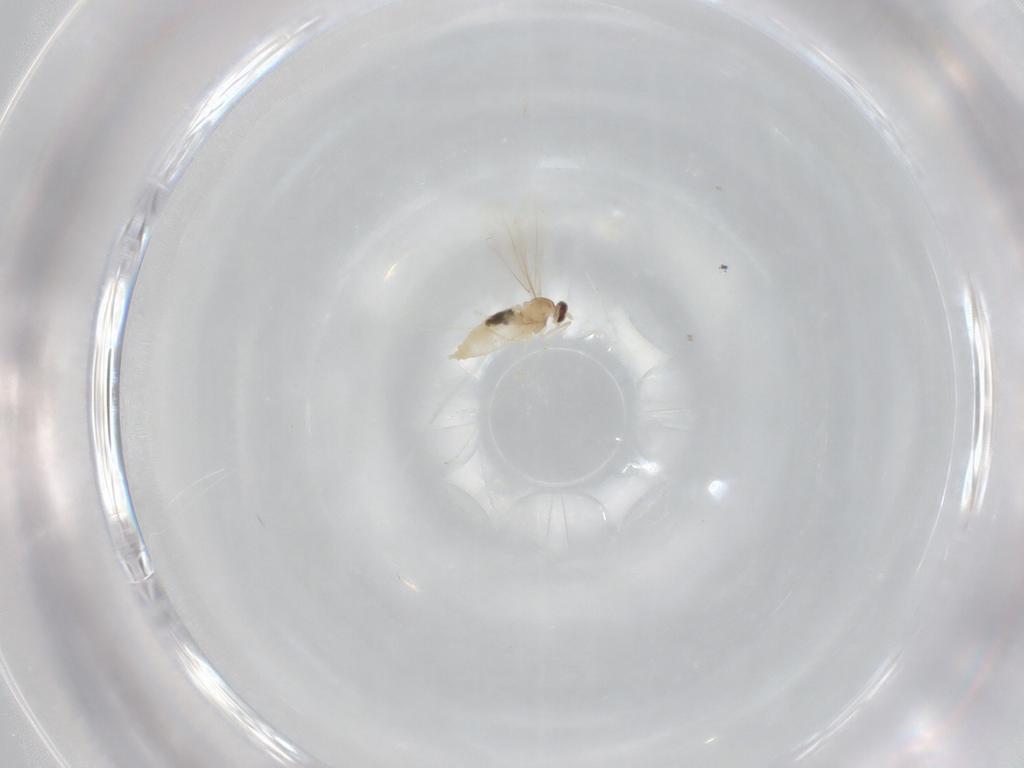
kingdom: Animalia
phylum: Arthropoda
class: Insecta
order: Diptera
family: Cecidomyiidae
